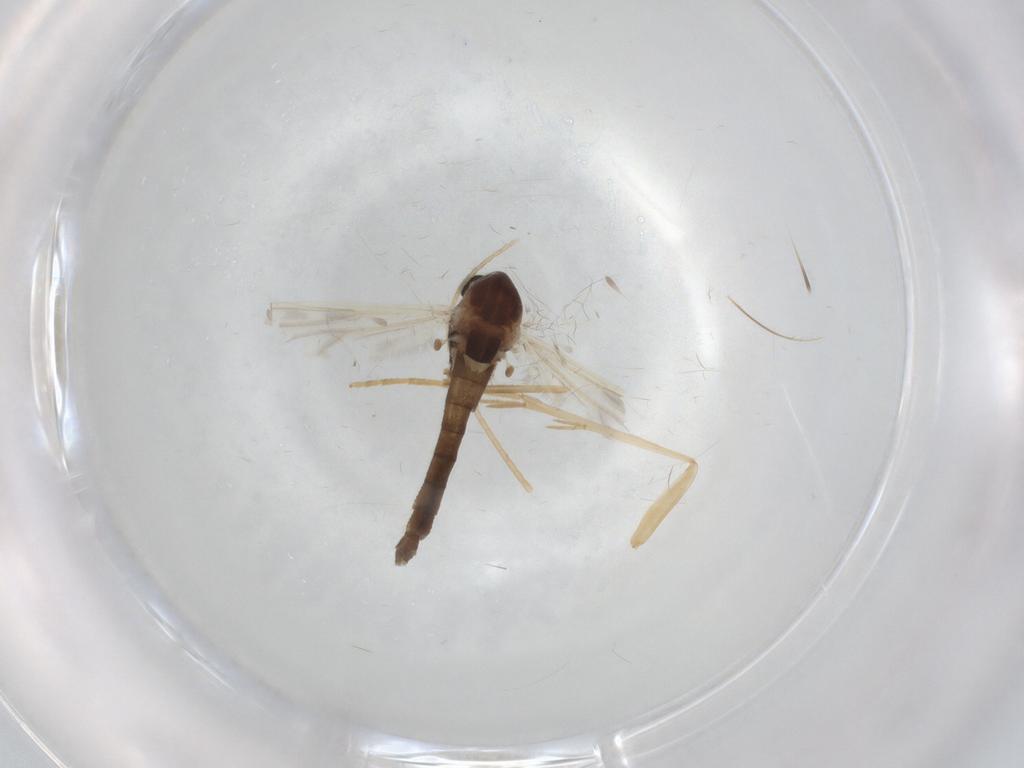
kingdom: Animalia
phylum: Arthropoda
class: Insecta
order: Diptera
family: Chironomidae
